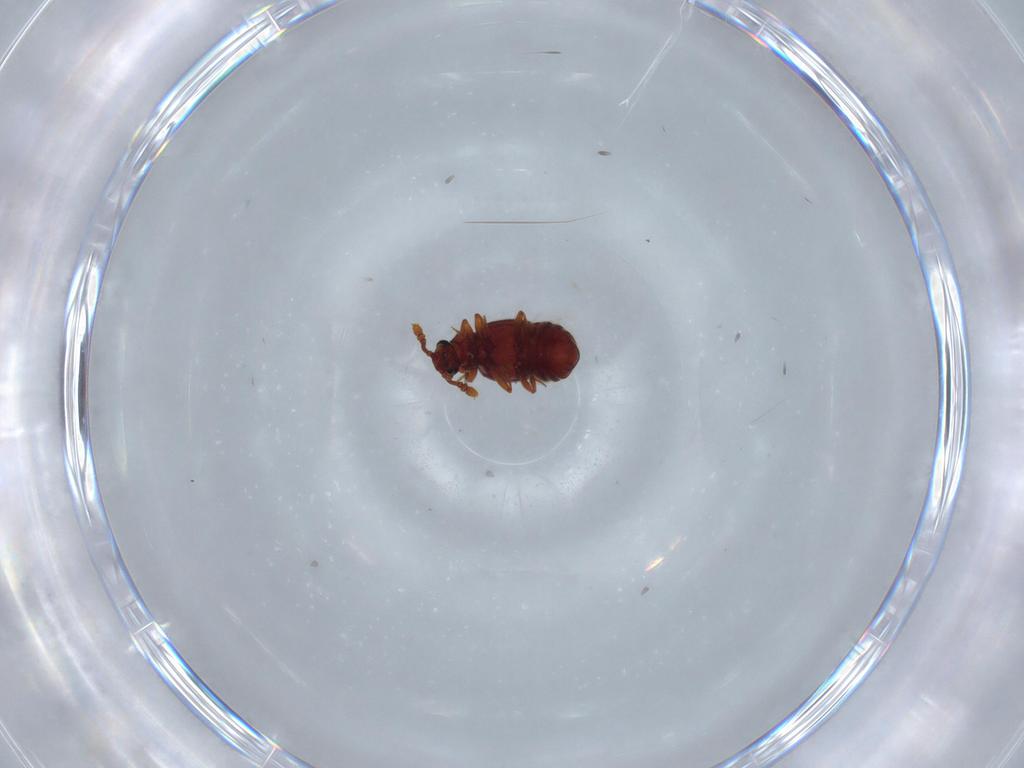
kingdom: Animalia
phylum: Arthropoda
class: Insecta
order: Coleoptera
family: Staphylinidae
